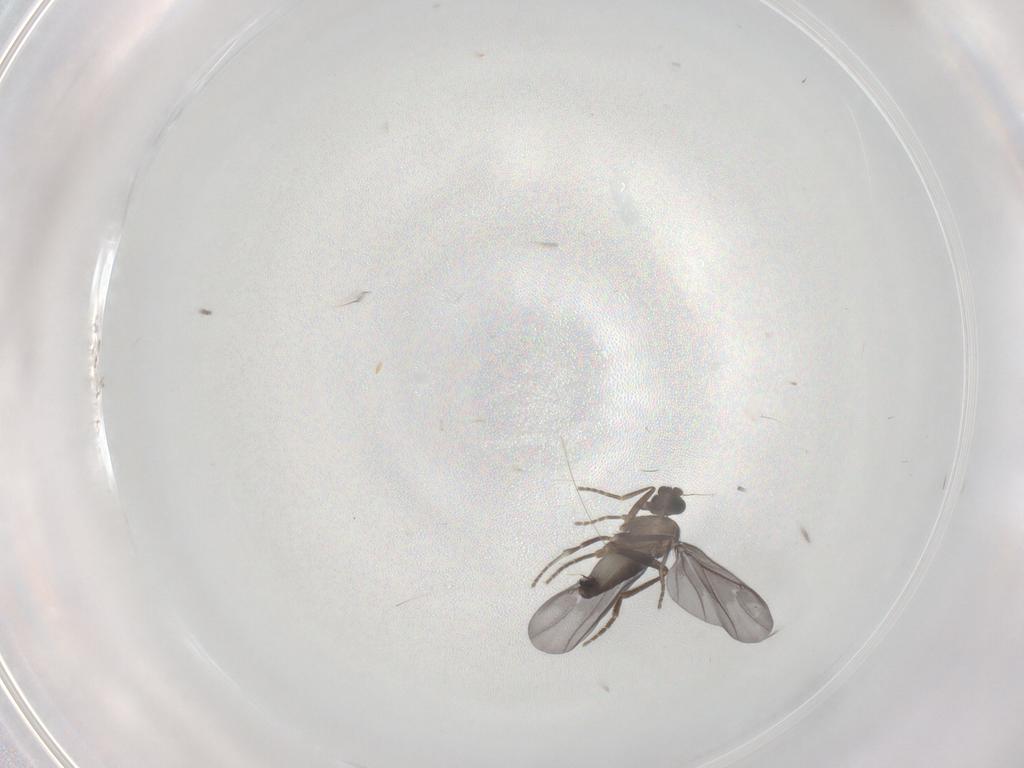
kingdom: Animalia
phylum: Arthropoda
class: Insecta
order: Diptera
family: Phoridae
